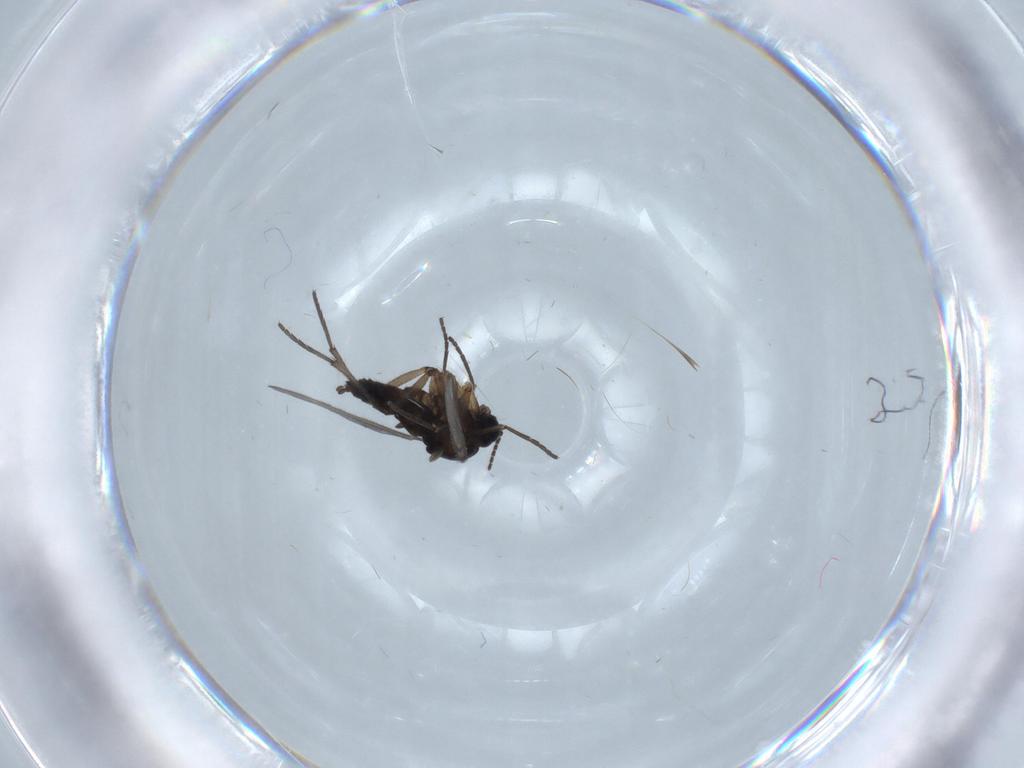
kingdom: Animalia
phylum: Arthropoda
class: Insecta
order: Diptera
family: Sciaridae
